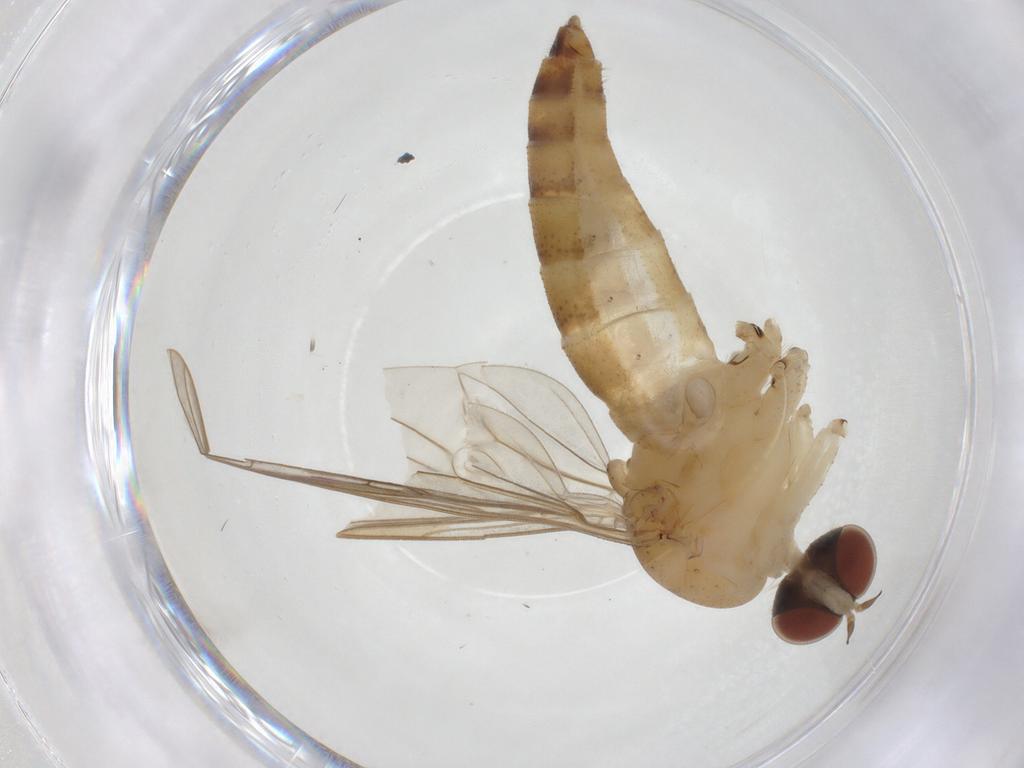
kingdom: Animalia
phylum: Arthropoda
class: Insecta
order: Diptera
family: Apsilocephalidae
